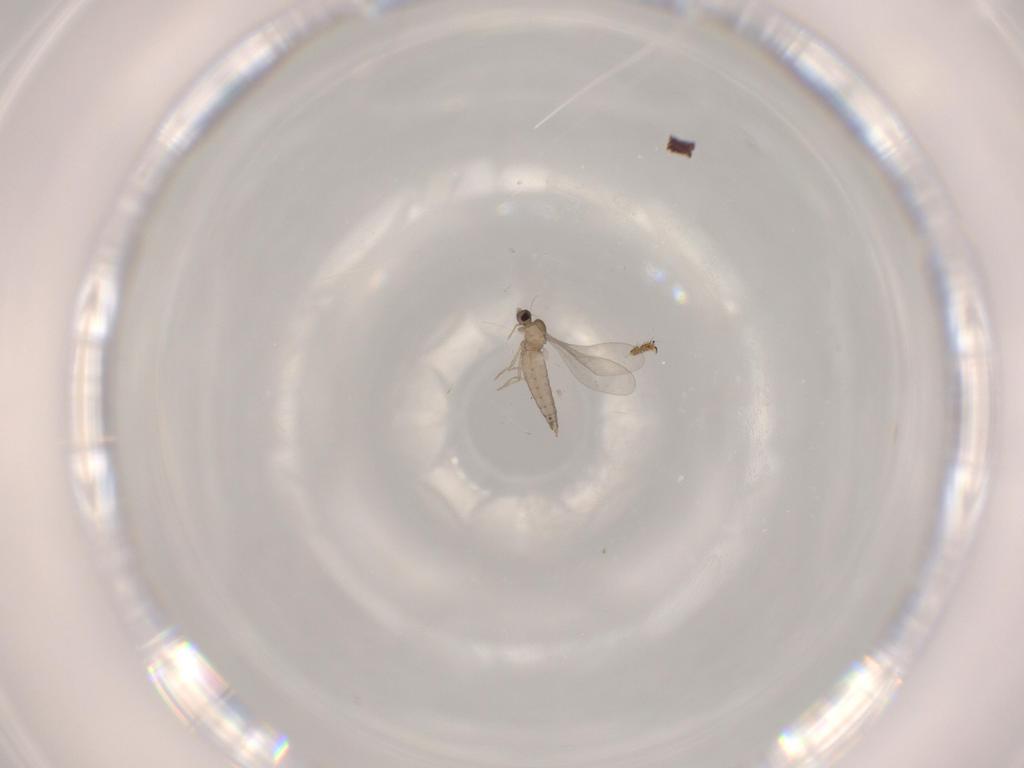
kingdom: Animalia
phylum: Arthropoda
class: Insecta
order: Diptera
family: Cecidomyiidae
